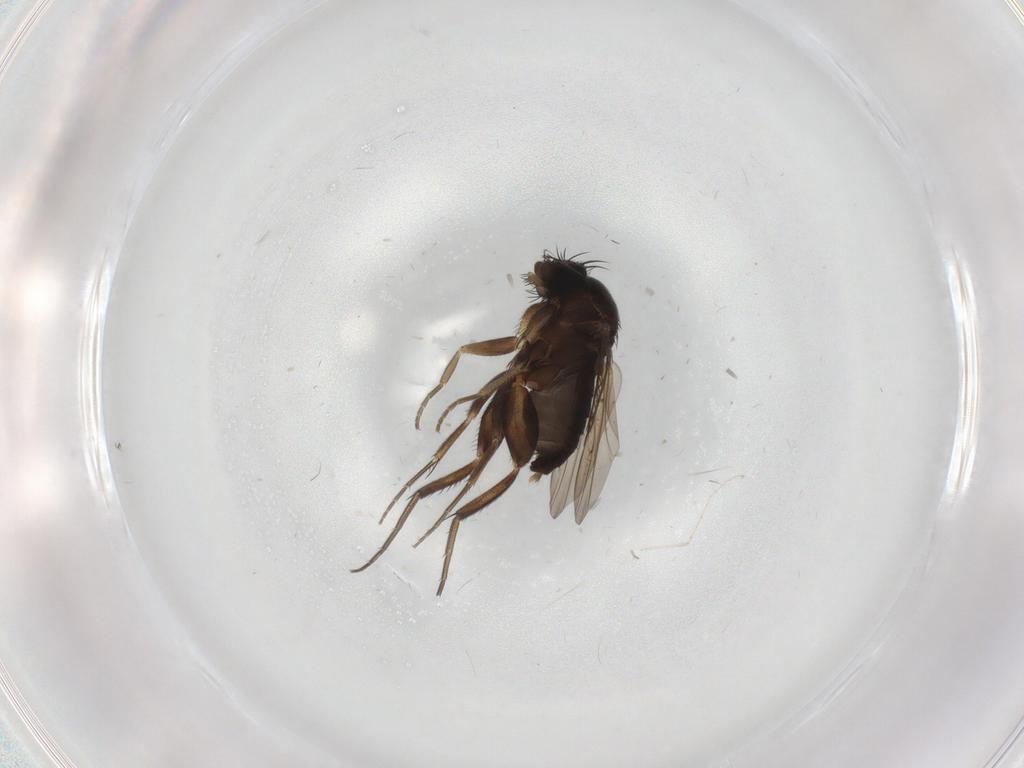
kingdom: Animalia
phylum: Arthropoda
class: Insecta
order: Diptera
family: Phoridae
